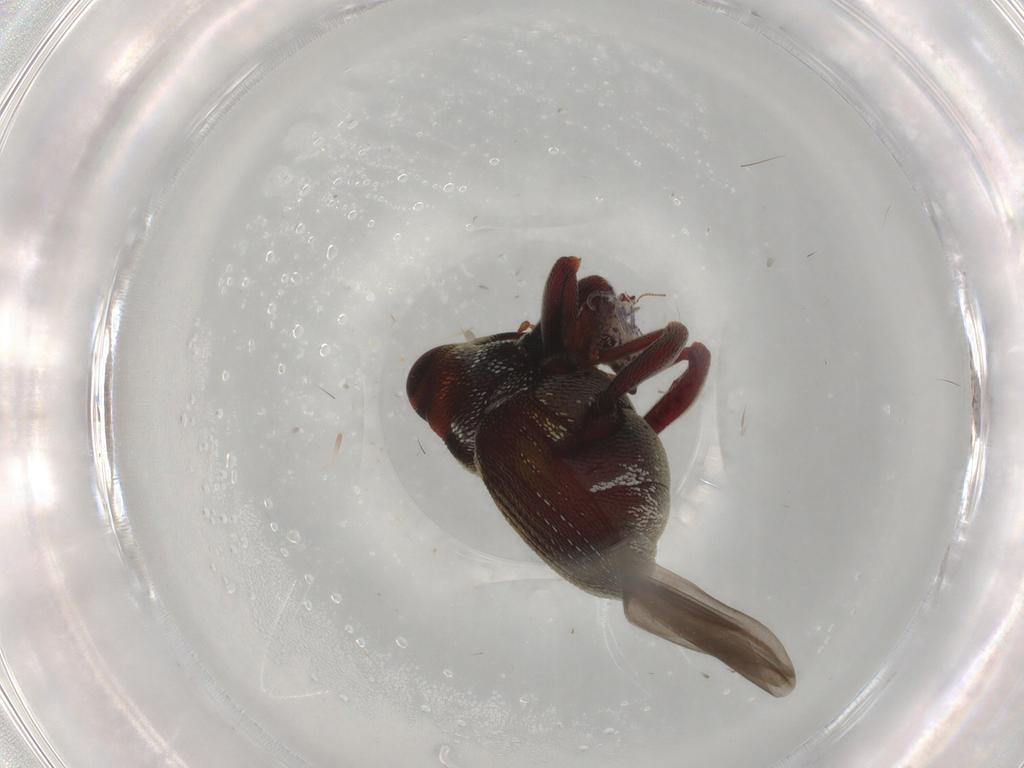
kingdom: Animalia
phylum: Arthropoda
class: Insecta
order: Coleoptera
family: Curculionidae
